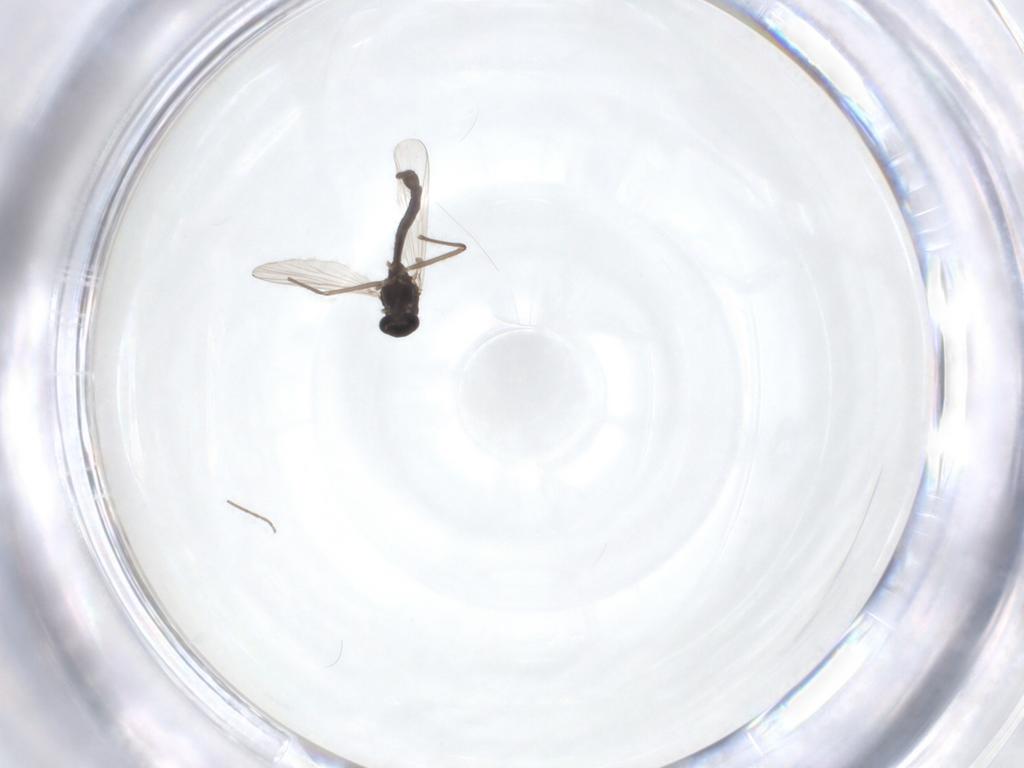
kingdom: Animalia
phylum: Arthropoda
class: Insecta
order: Diptera
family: Chironomidae
